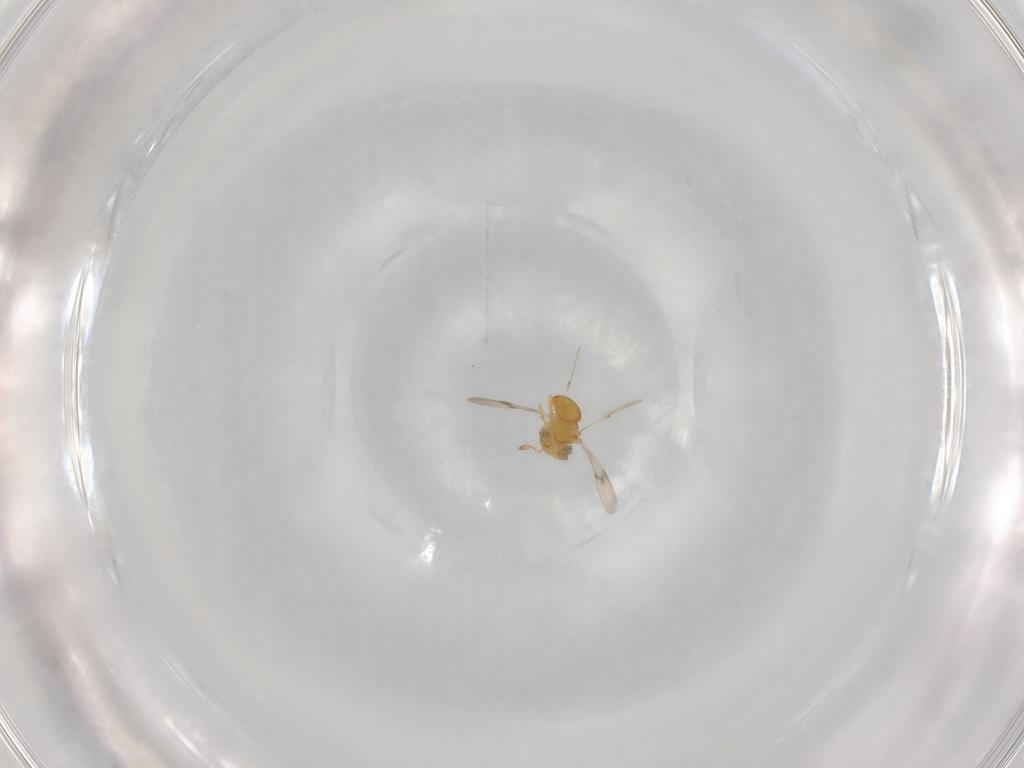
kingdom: Animalia
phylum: Arthropoda
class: Insecta
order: Hymenoptera
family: Scelionidae
